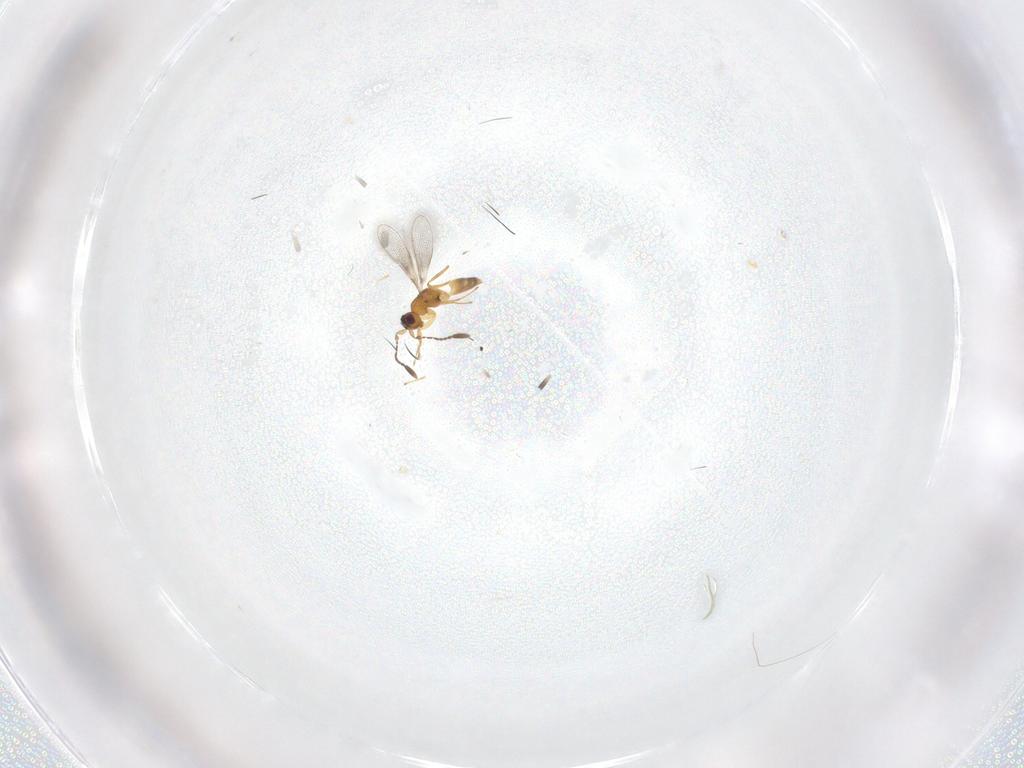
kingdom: Animalia
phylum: Arthropoda
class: Insecta
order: Hymenoptera
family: Mymaridae
